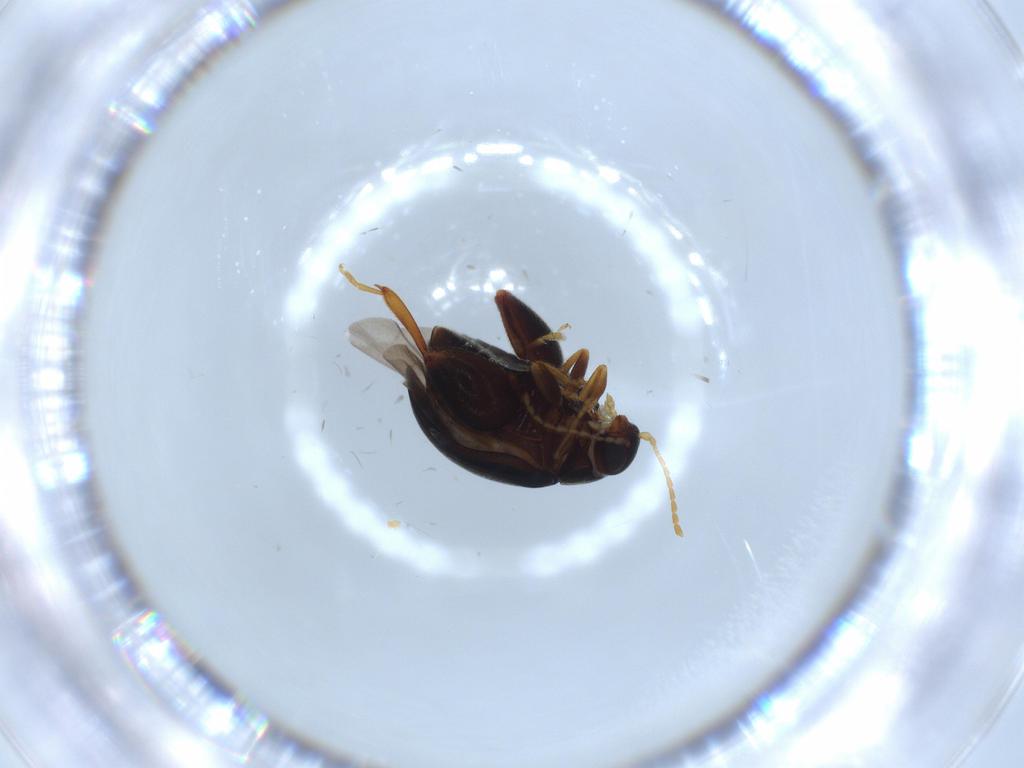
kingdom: Animalia
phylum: Arthropoda
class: Insecta
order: Coleoptera
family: Chrysomelidae
